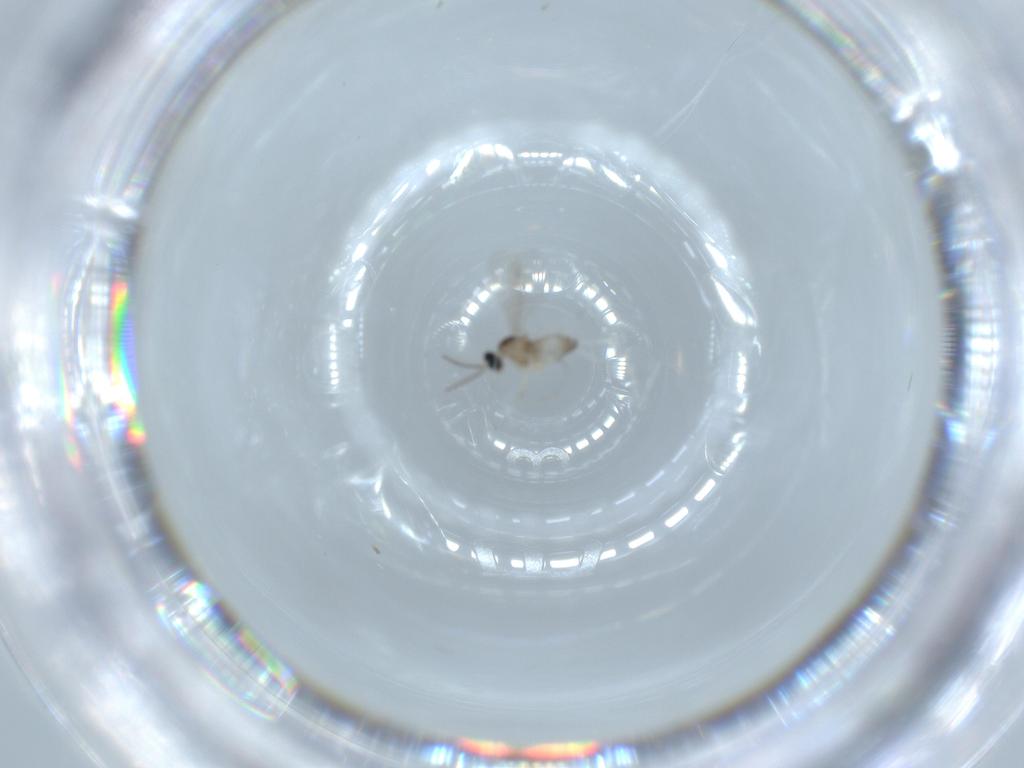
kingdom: Animalia
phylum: Arthropoda
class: Insecta
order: Diptera
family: Cecidomyiidae
